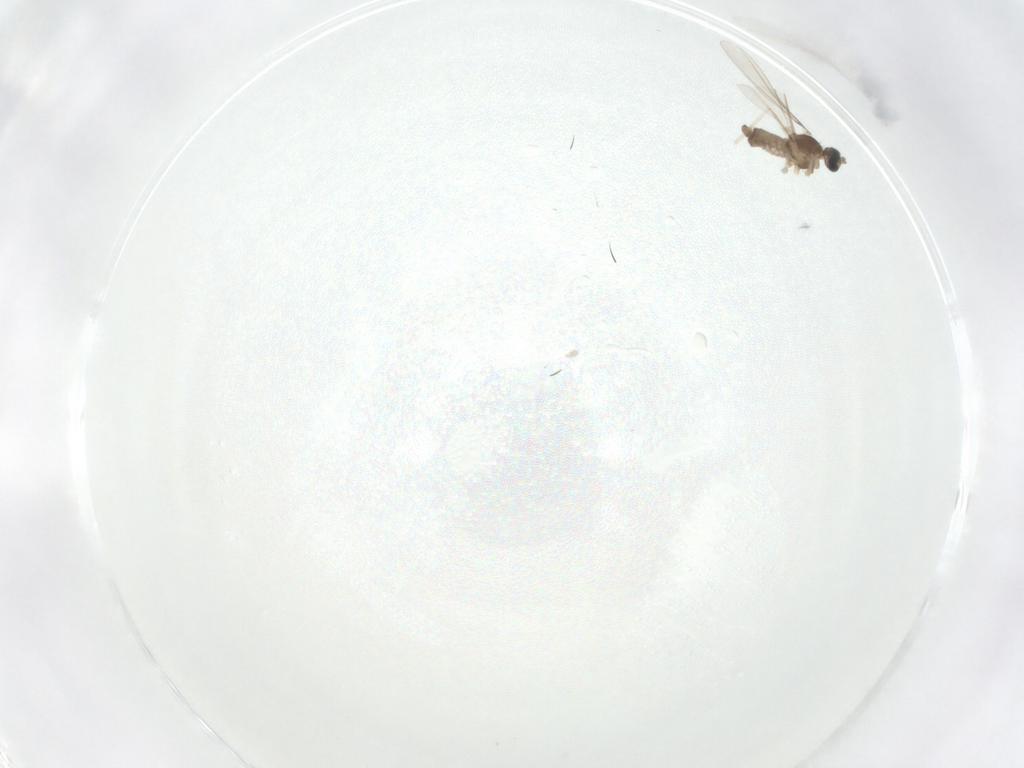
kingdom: Animalia
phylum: Arthropoda
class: Insecta
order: Diptera
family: Cecidomyiidae
